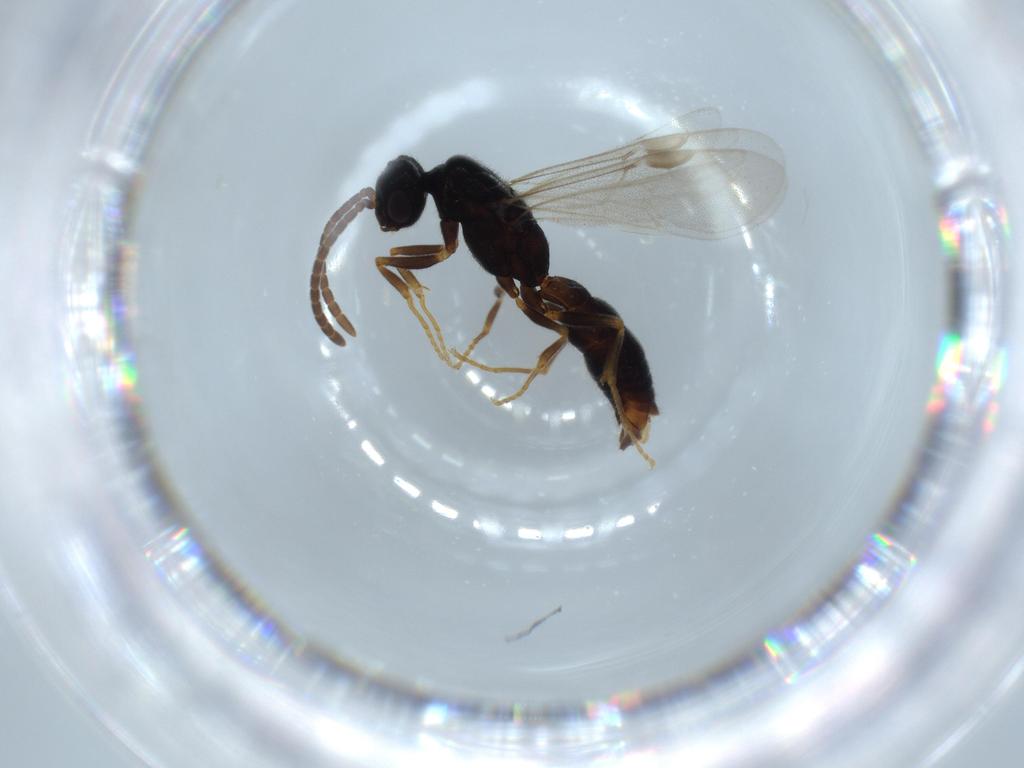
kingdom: Animalia
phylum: Arthropoda
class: Insecta
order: Hymenoptera
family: Formicidae
